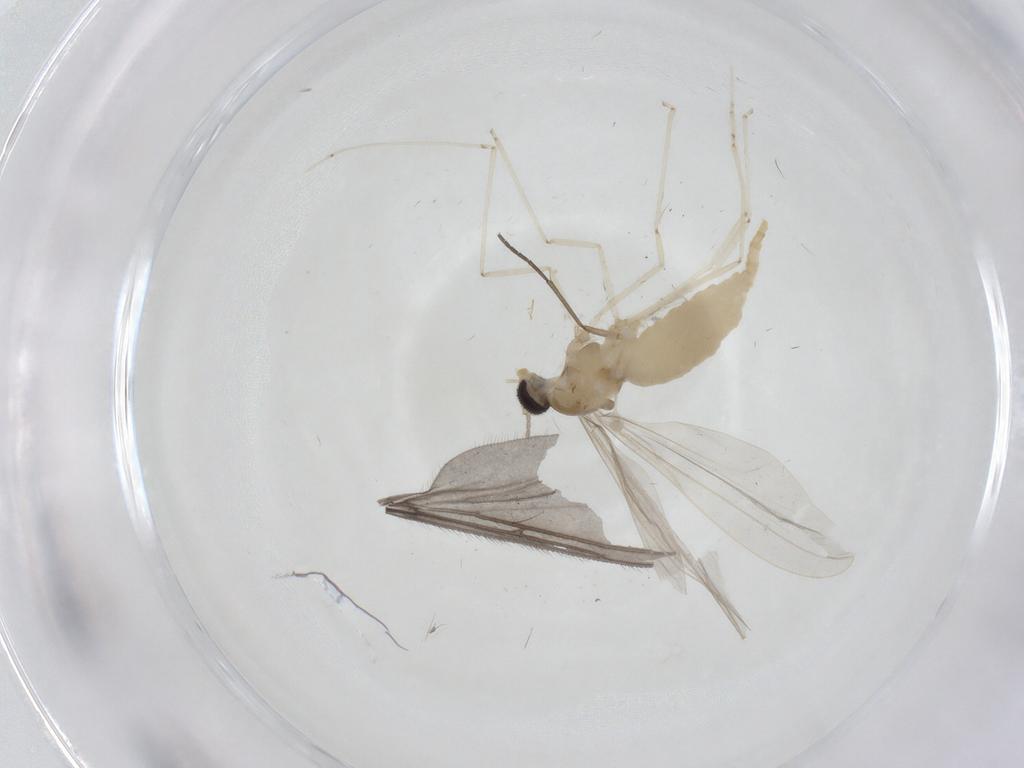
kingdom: Animalia
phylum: Arthropoda
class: Insecta
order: Diptera
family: Cecidomyiidae
